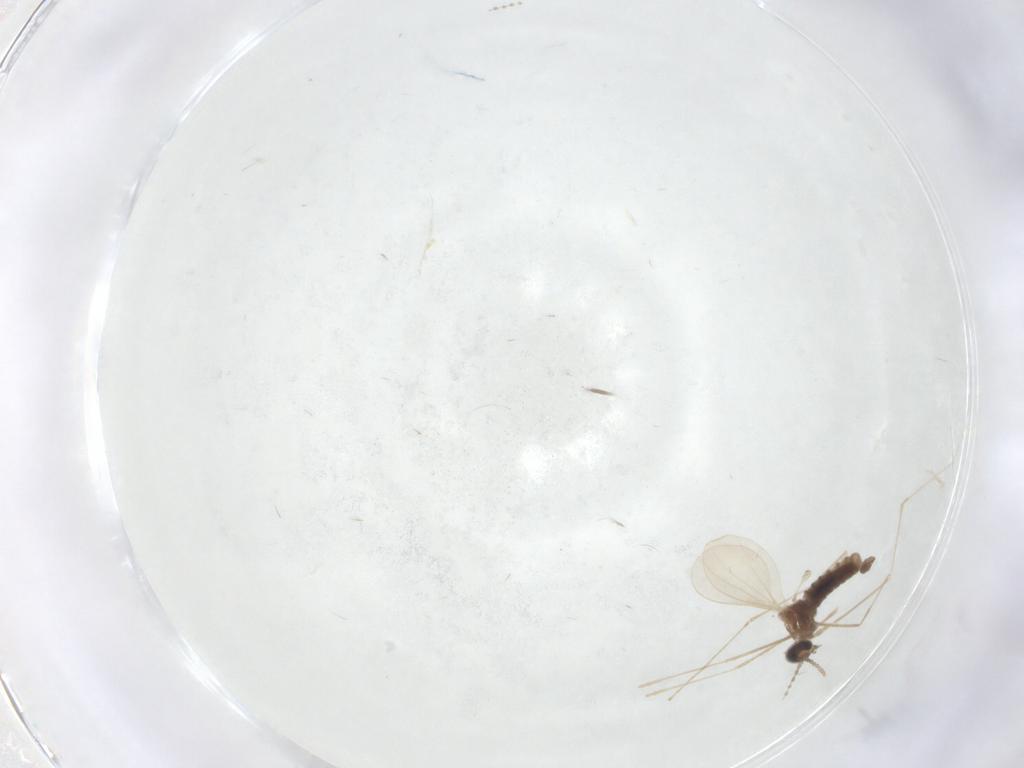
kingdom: Animalia
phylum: Arthropoda
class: Insecta
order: Diptera
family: Cecidomyiidae
